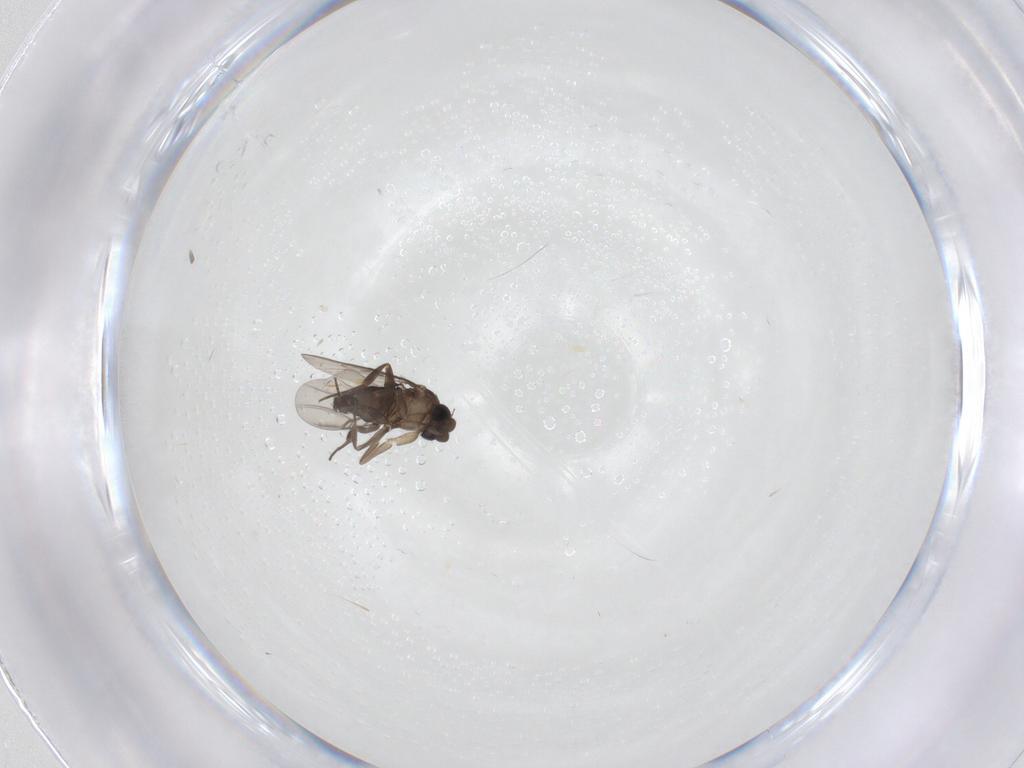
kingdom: Animalia
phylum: Arthropoda
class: Insecta
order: Diptera
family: Phoridae
